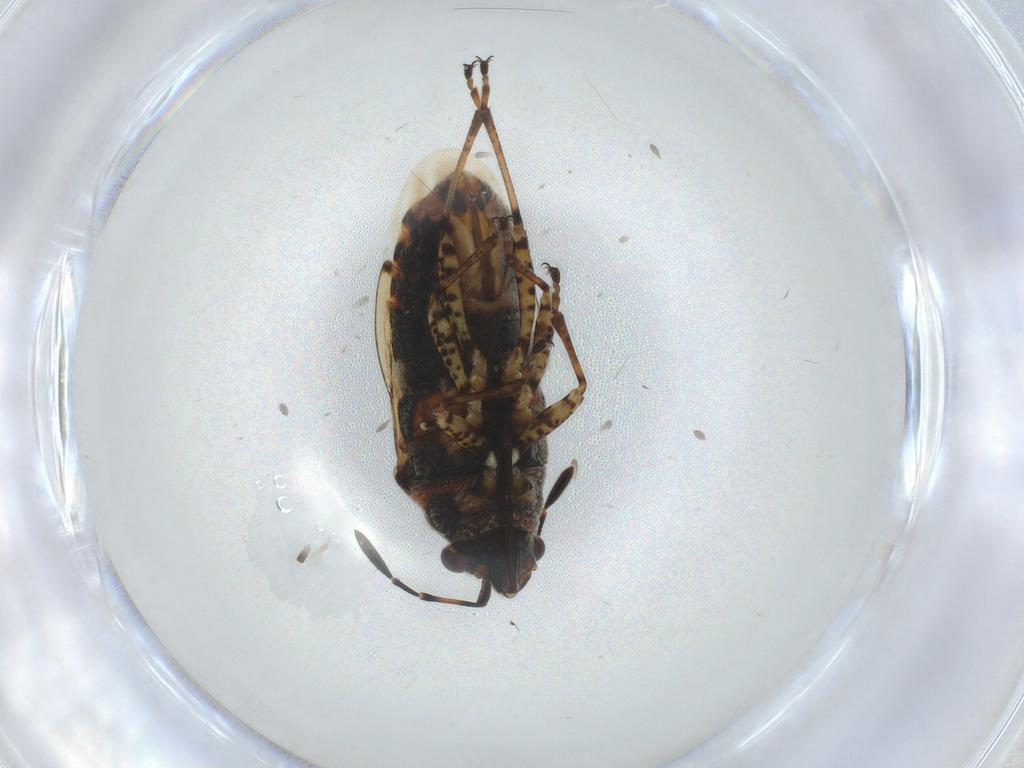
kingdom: Animalia
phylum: Arthropoda
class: Insecta
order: Hemiptera
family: Lygaeidae
